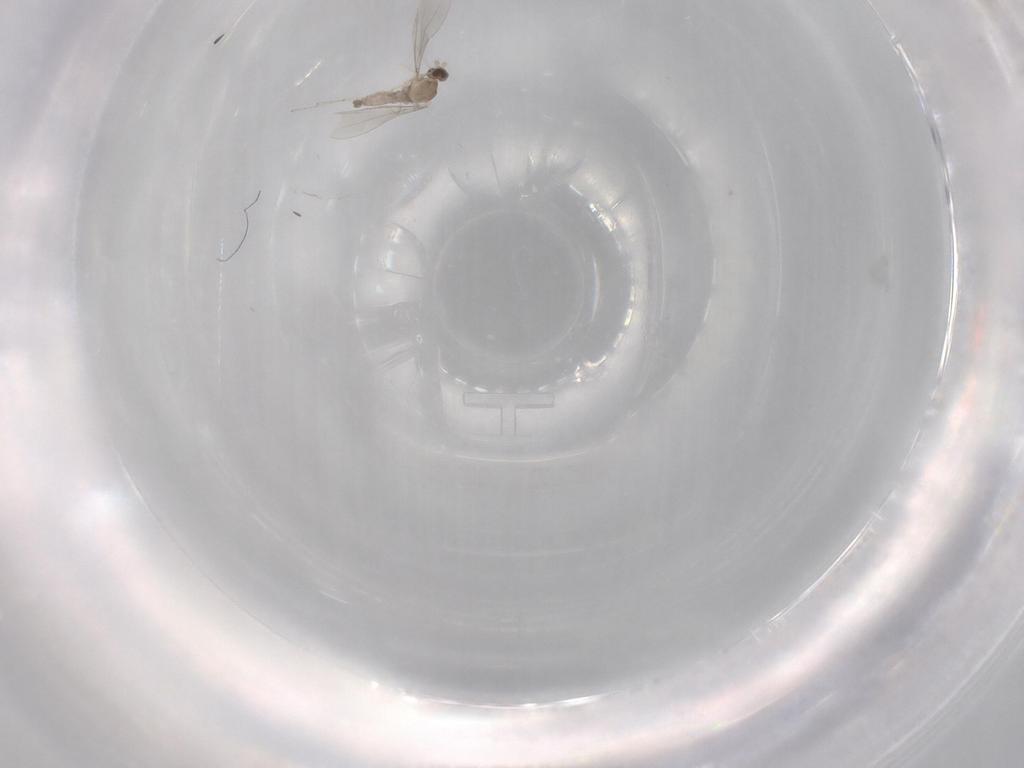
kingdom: Animalia
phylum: Arthropoda
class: Insecta
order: Diptera
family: Cecidomyiidae
